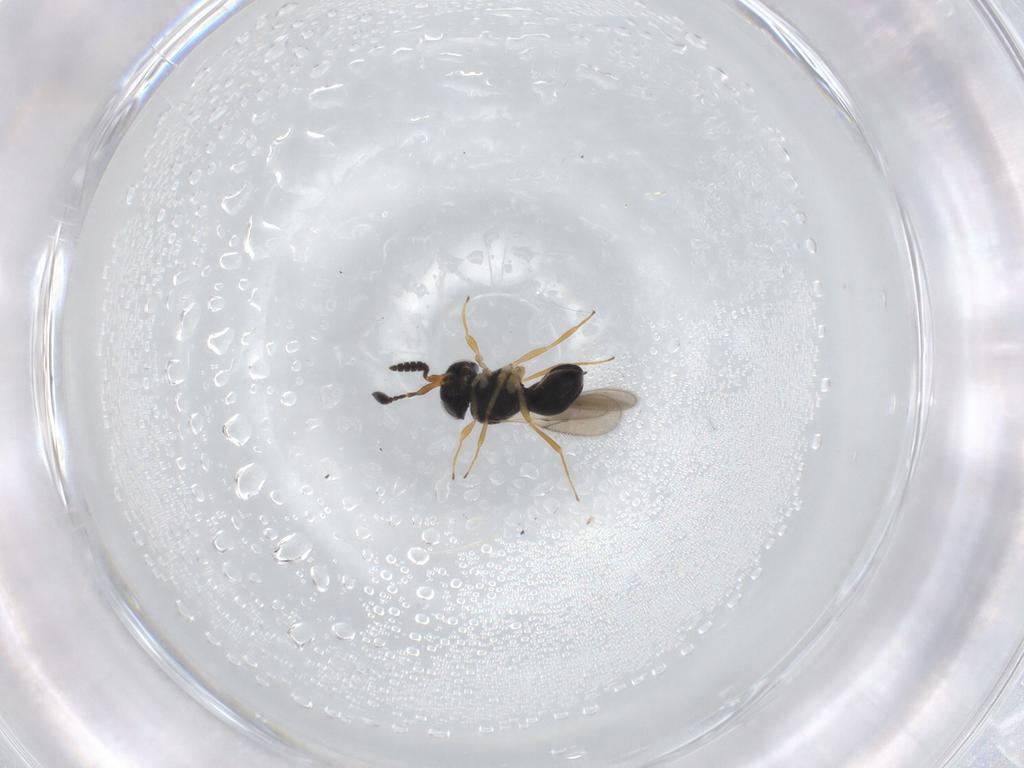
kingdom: Animalia
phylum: Arthropoda
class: Insecta
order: Hymenoptera
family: Scelionidae
